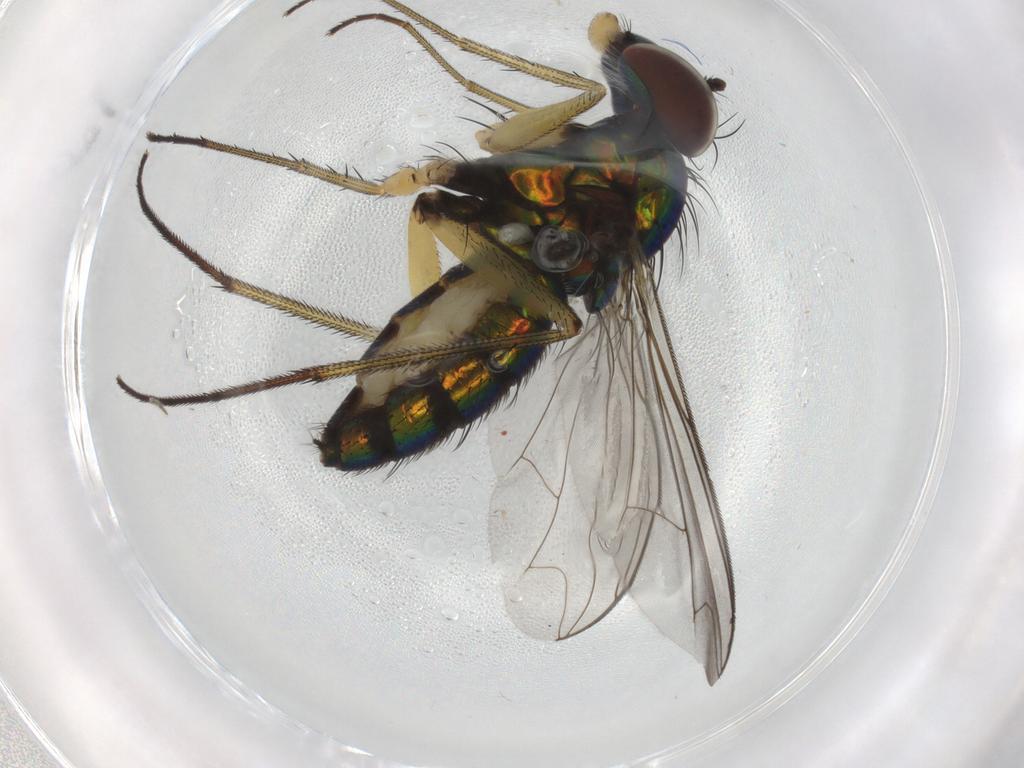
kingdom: Animalia
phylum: Arthropoda
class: Insecta
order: Diptera
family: Dolichopodidae
